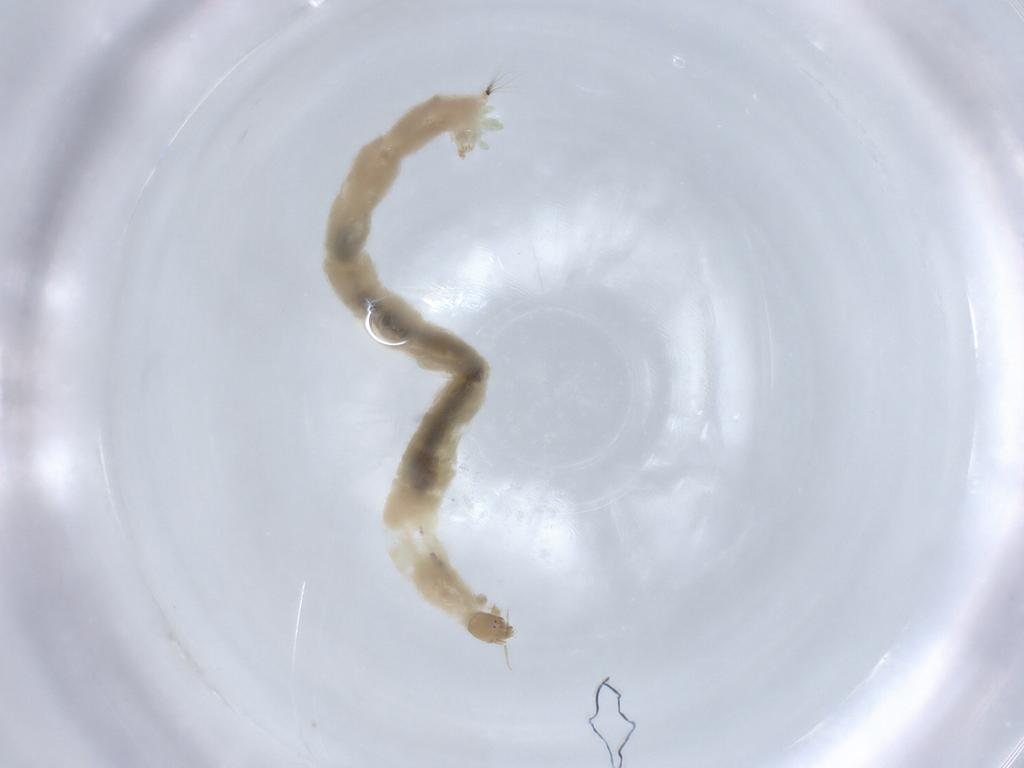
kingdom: Animalia
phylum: Arthropoda
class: Insecta
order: Diptera
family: Chironomidae
